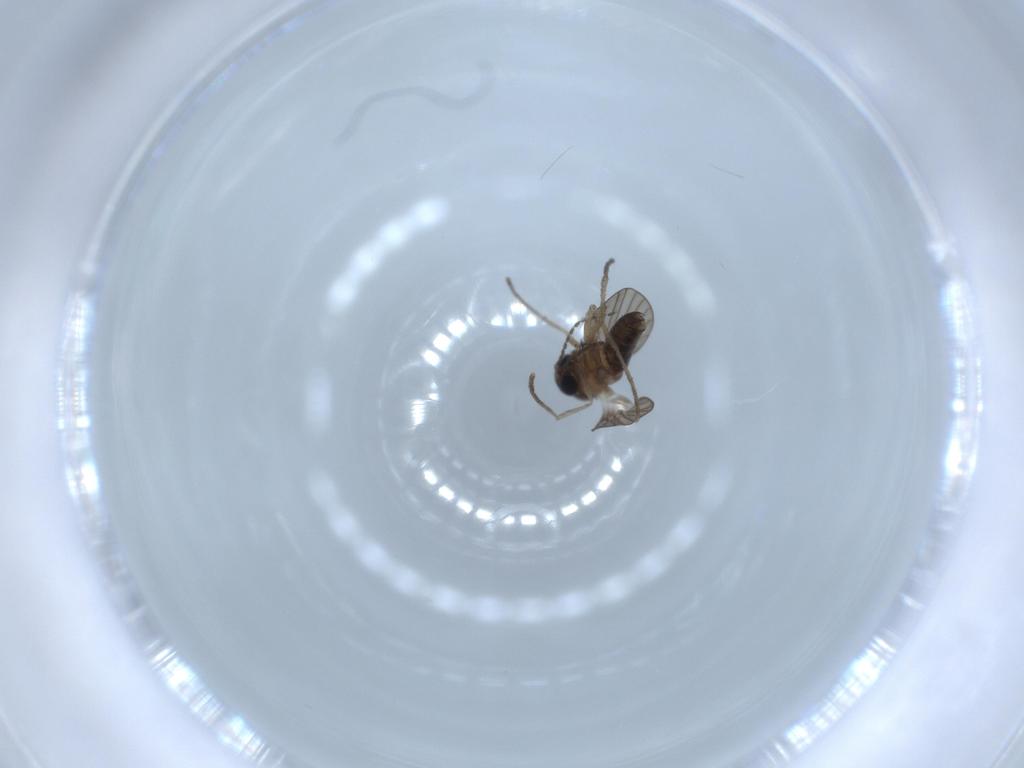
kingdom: Animalia
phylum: Arthropoda
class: Insecta
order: Diptera
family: Psychodidae
